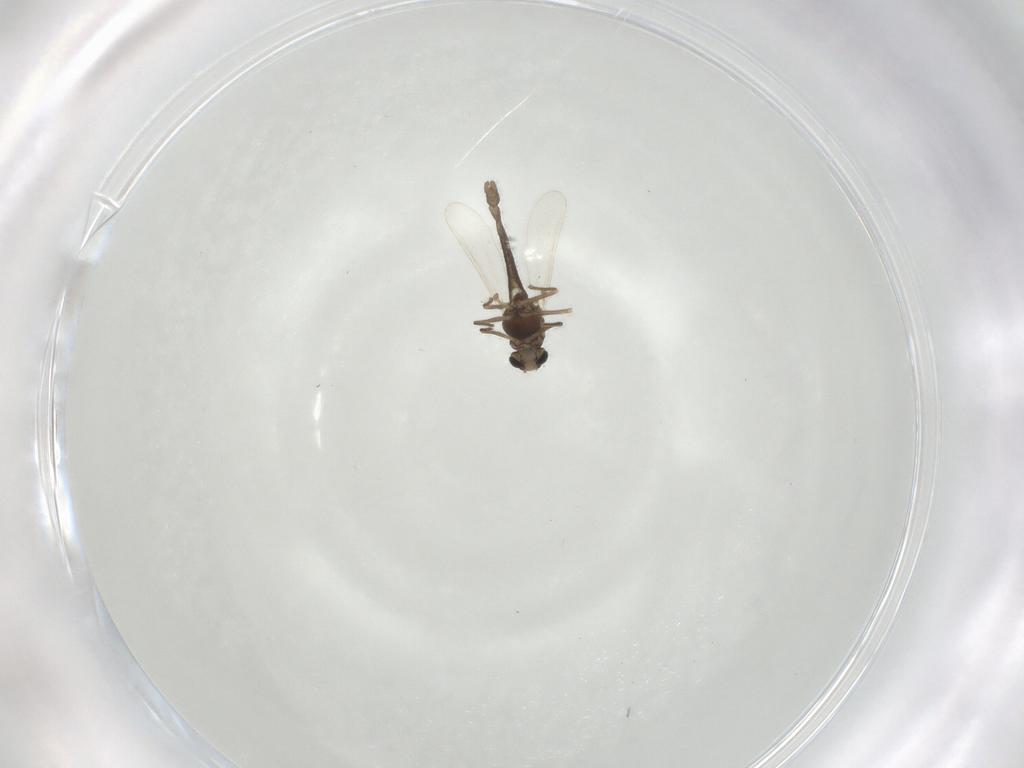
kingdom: Animalia
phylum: Arthropoda
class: Insecta
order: Diptera
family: Chironomidae
